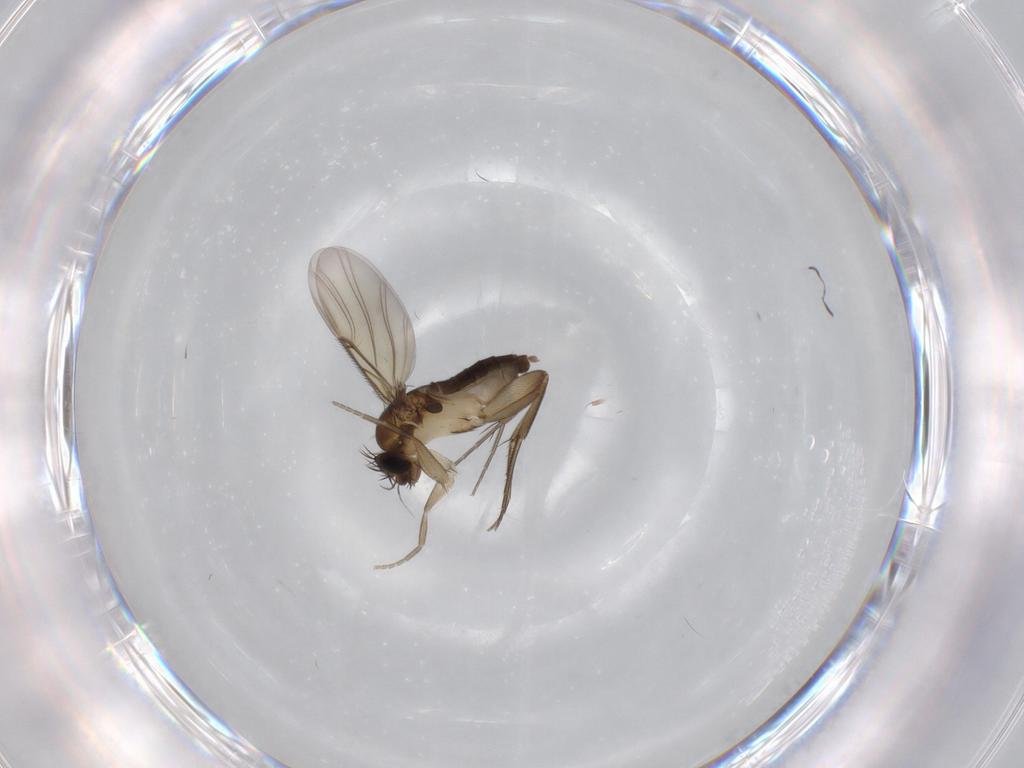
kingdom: Animalia
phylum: Arthropoda
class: Insecta
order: Diptera
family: Phoridae
